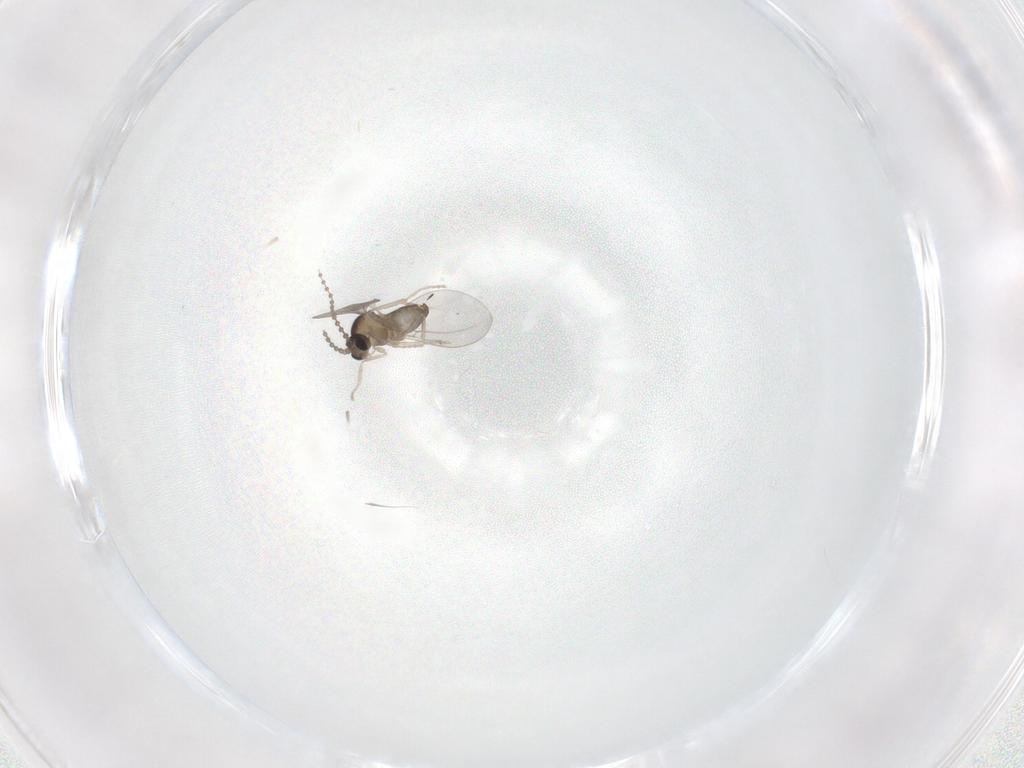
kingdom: Animalia
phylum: Arthropoda
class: Insecta
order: Diptera
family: Cecidomyiidae
